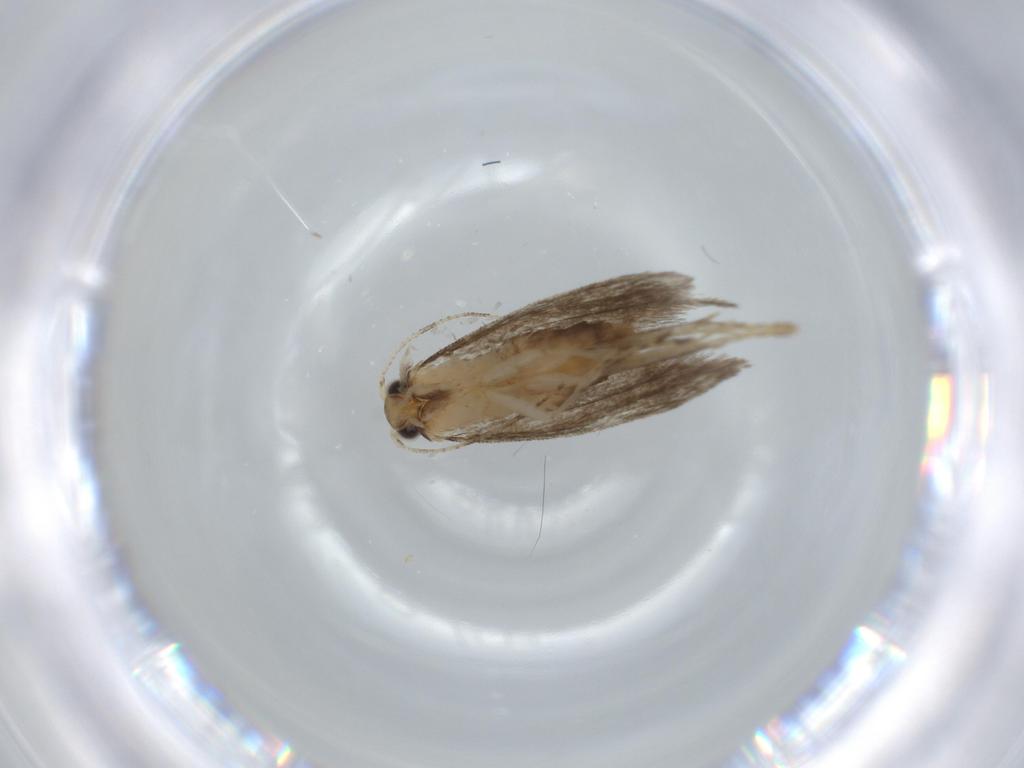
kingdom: Animalia
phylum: Arthropoda
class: Insecta
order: Lepidoptera
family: Tineidae
